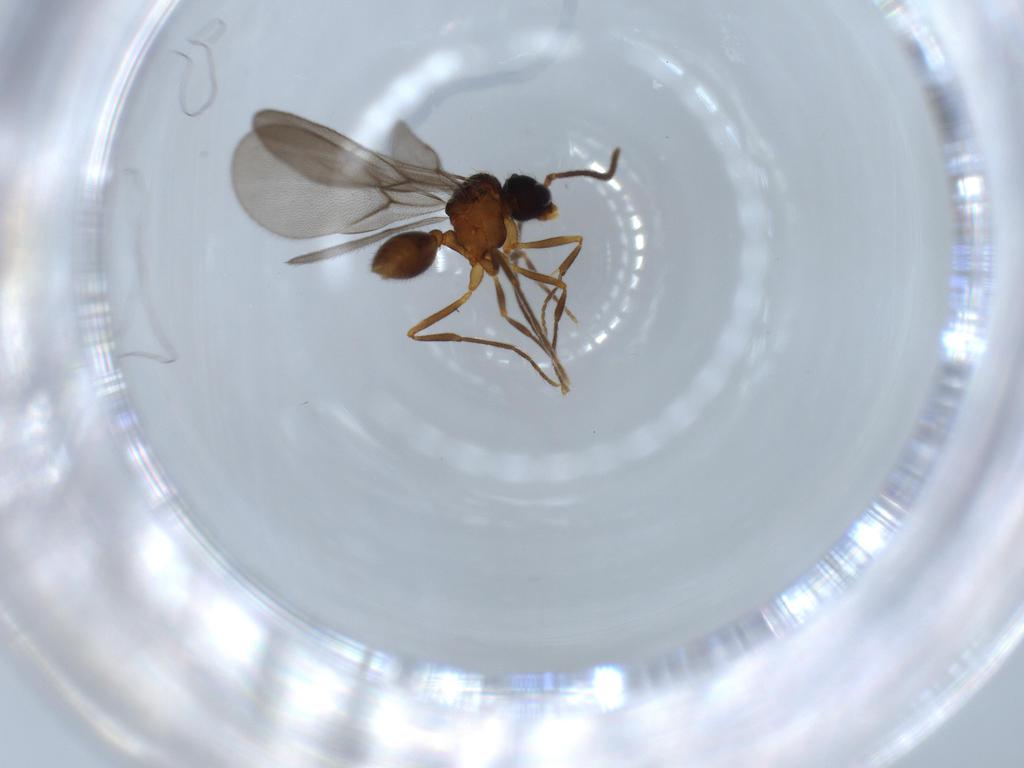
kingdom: Animalia
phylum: Arthropoda
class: Insecta
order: Hymenoptera
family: Formicidae
